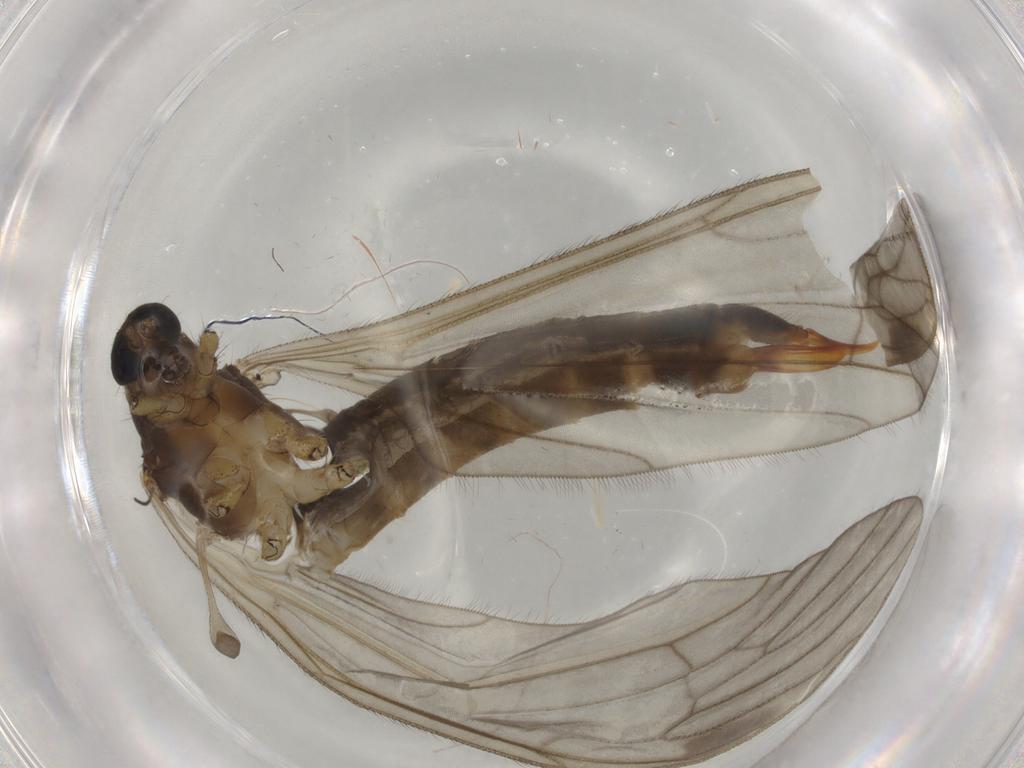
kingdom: Animalia
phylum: Arthropoda
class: Insecta
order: Diptera
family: Limoniidae
